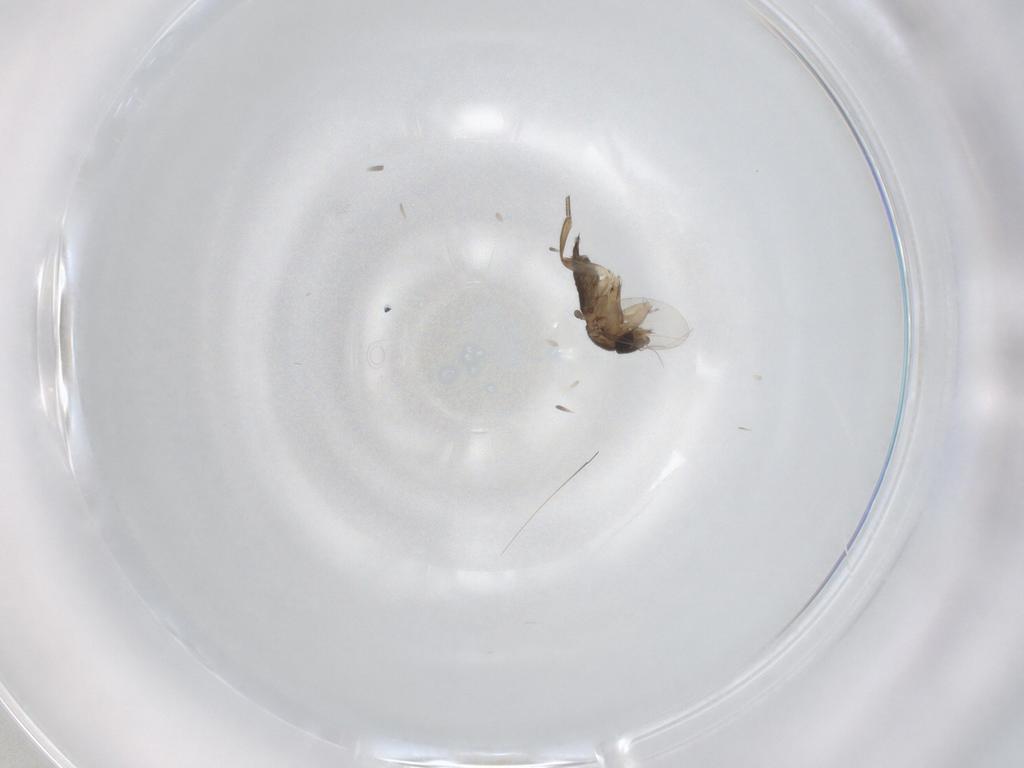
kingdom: Animalia
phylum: Arthropoda
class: Insecta
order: Diptera
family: Phoridae
